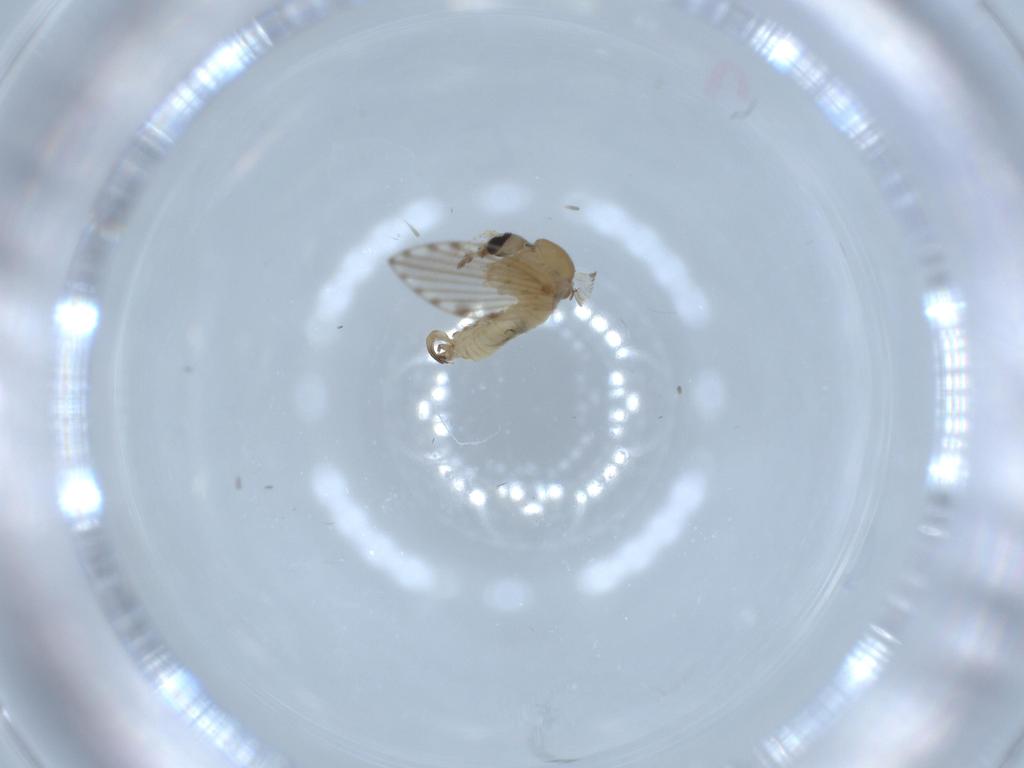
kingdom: Animalia
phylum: Arthropoda
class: Insecta
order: Diptera
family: Psychodidae
